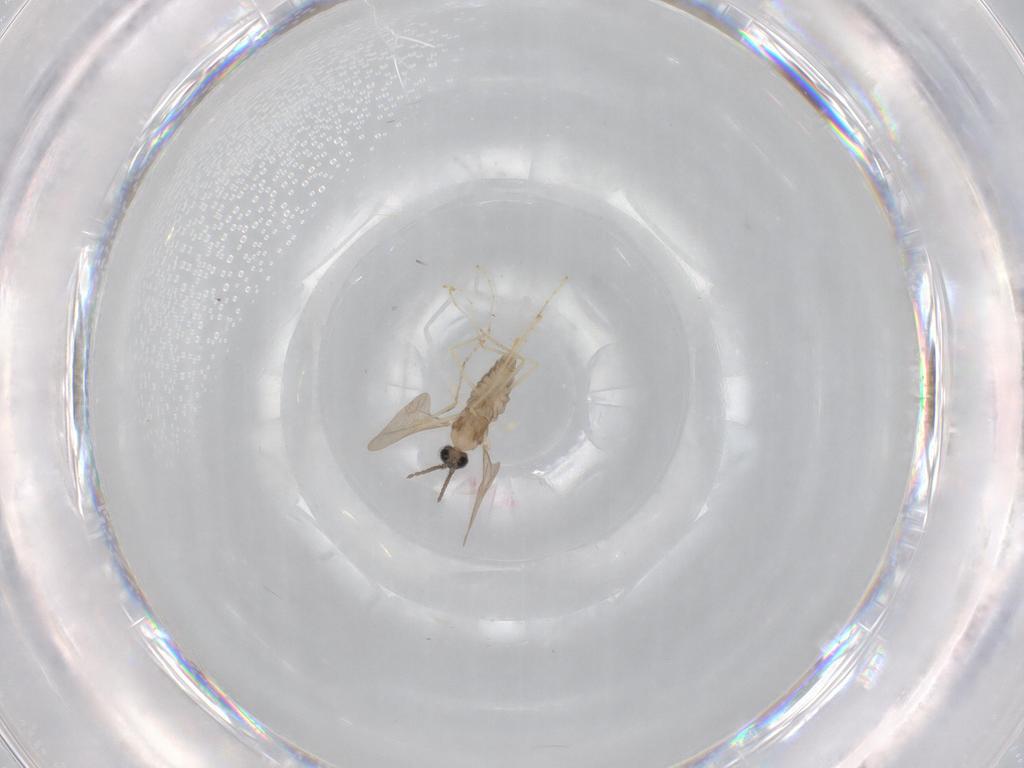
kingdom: Animalia
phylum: Arthropoda
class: Insecta
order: Diptera
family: Cecidomyiidae
